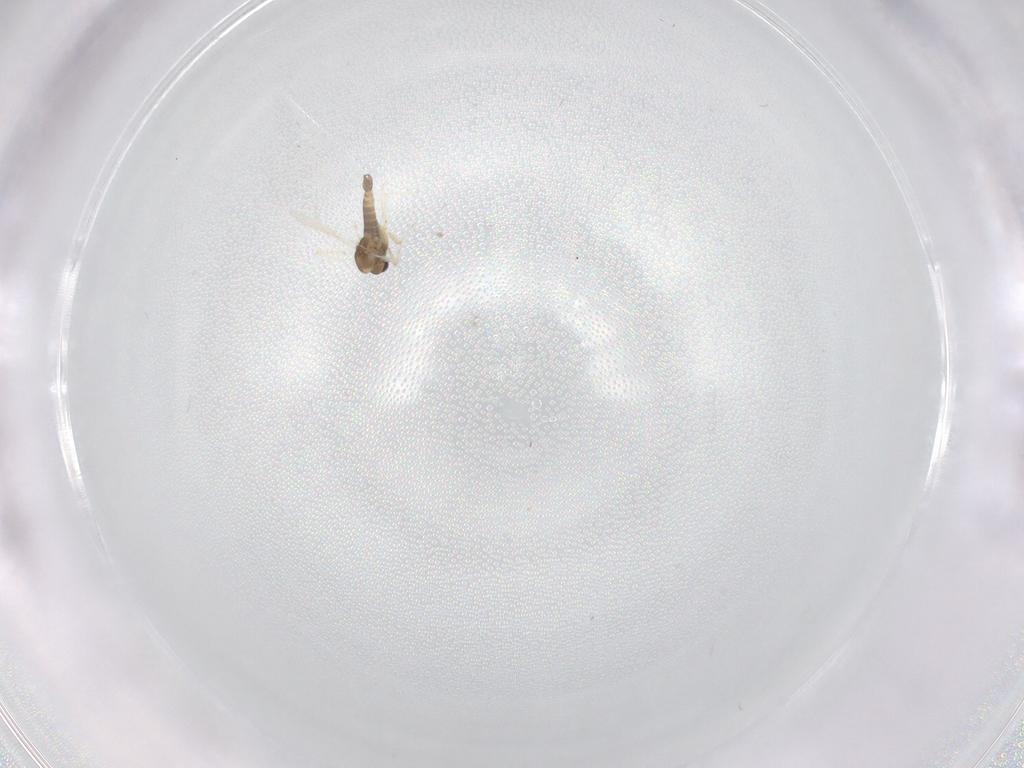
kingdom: Animalia
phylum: Arthropoda
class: Insecta
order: Diptera
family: Chironomidae
